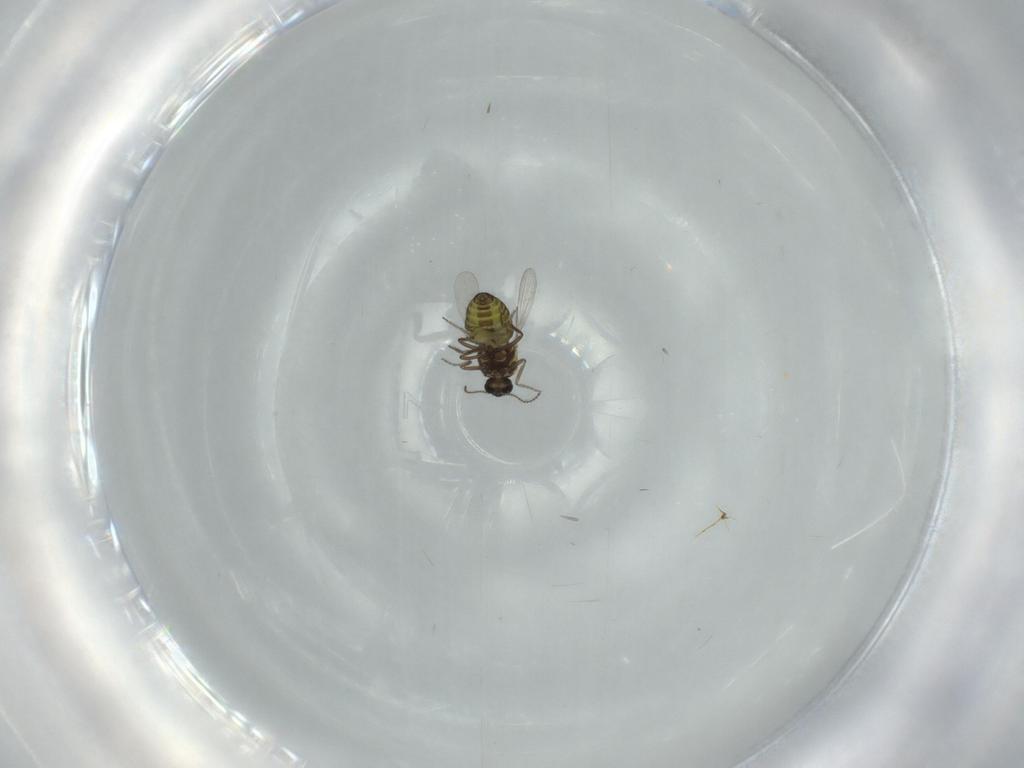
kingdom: Animalia
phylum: Arthropoda
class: Insecta
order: Diptera
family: Ceratopogonidae
